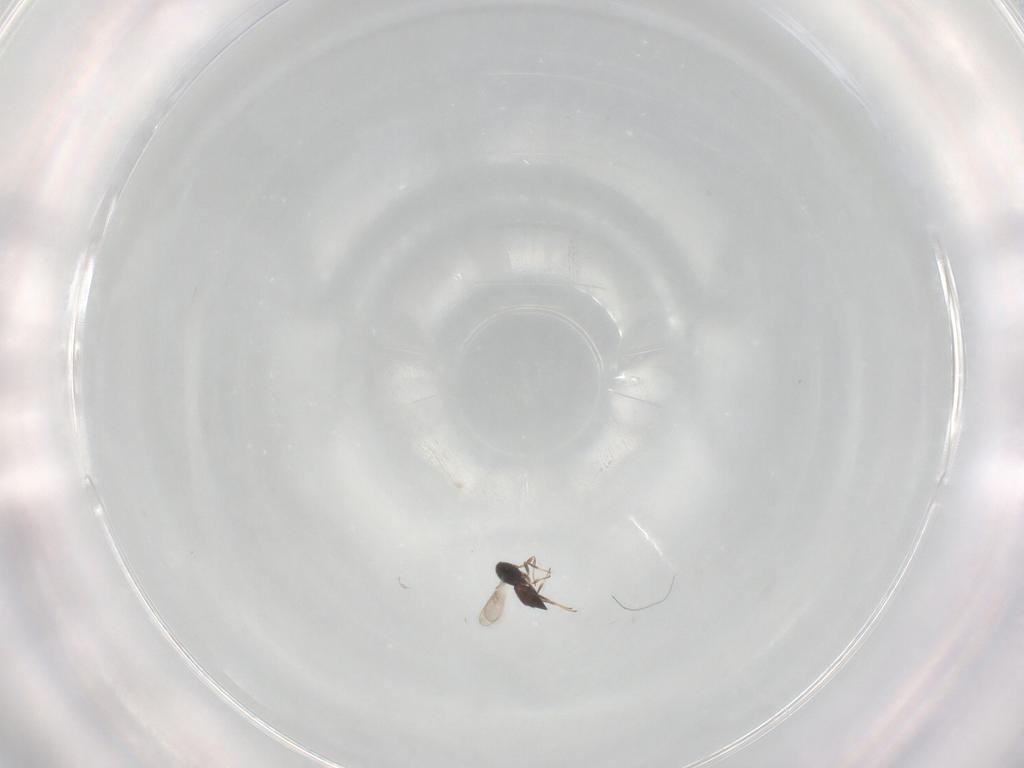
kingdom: Animalia
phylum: Arthropoda
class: Insecta
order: Hymenoptera
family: Scelionidae
